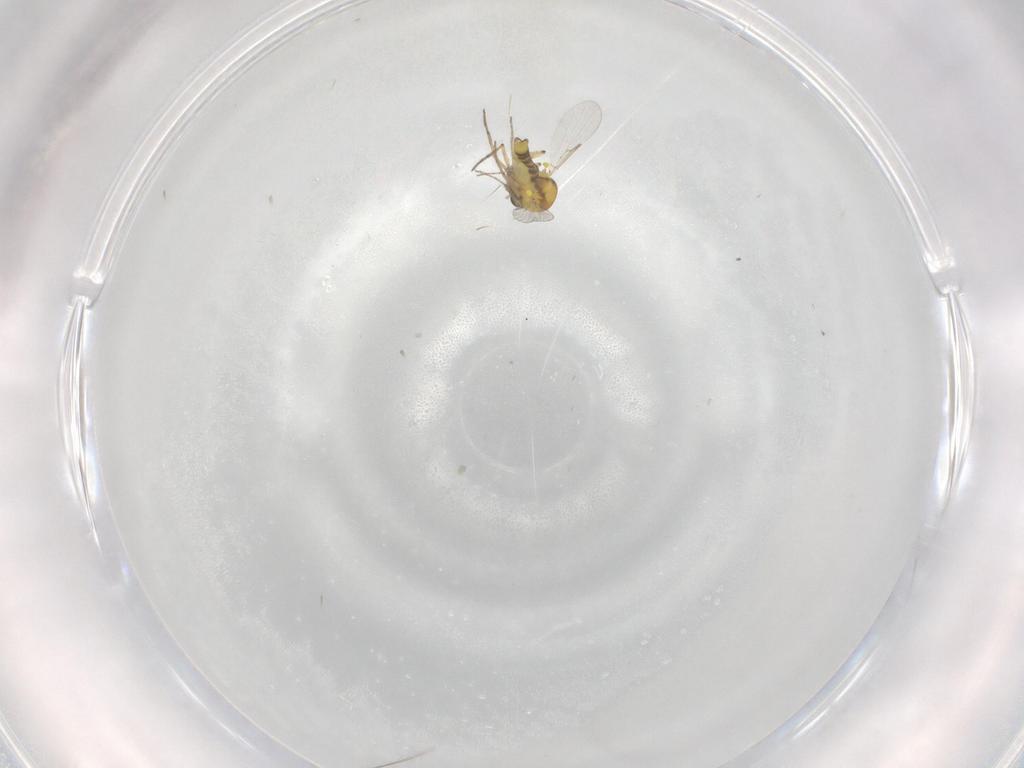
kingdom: Animalia
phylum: Arthropoda
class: Insecta
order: Diptera
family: Ceratopogonidae
